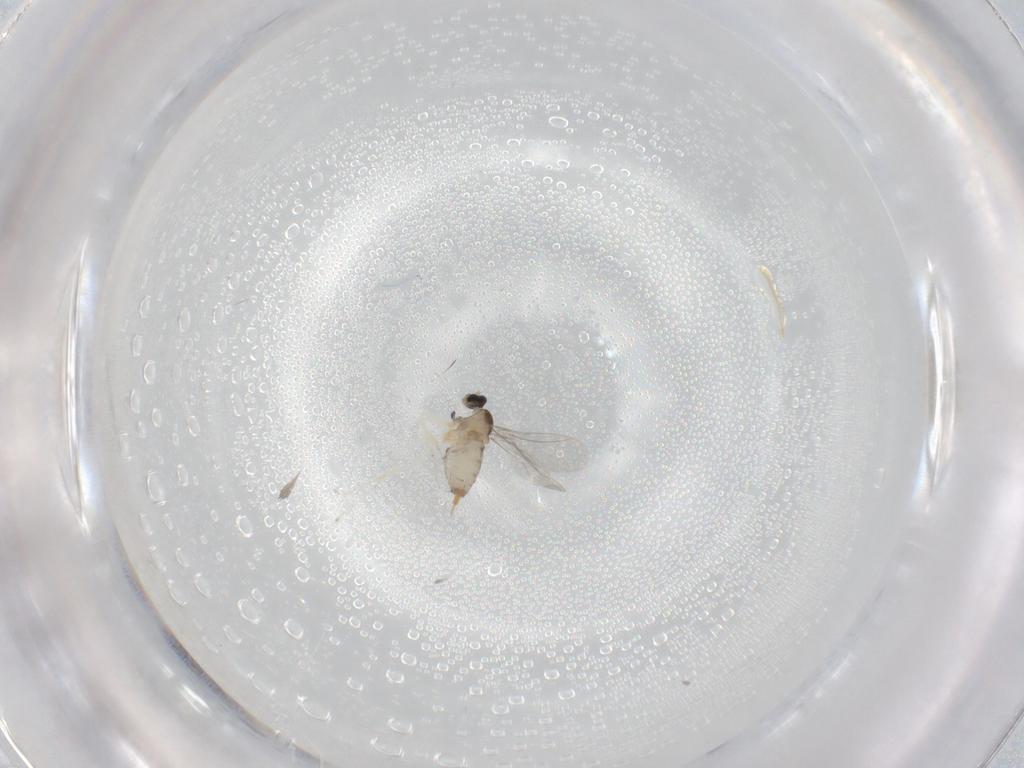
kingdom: Animalia
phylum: Arthropoda
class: Insecta
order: Diptera
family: Cecidomyiidae
